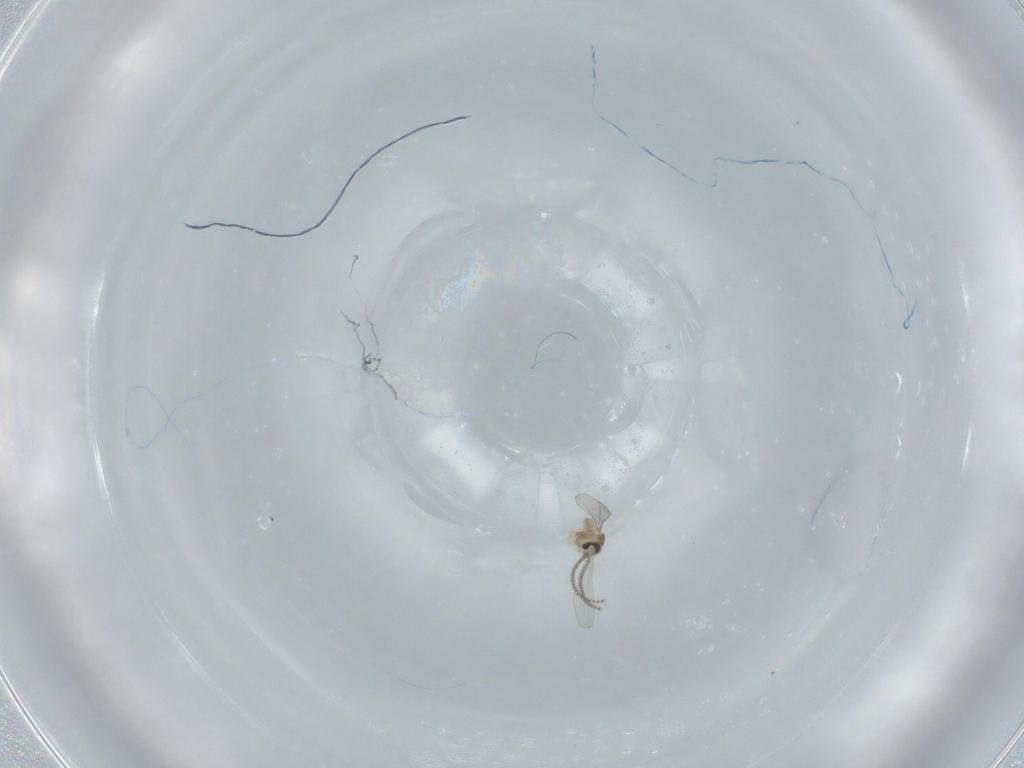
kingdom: Animalia
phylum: Arthropoda
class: Insecta
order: Diptera
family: Cecidomyiidae
